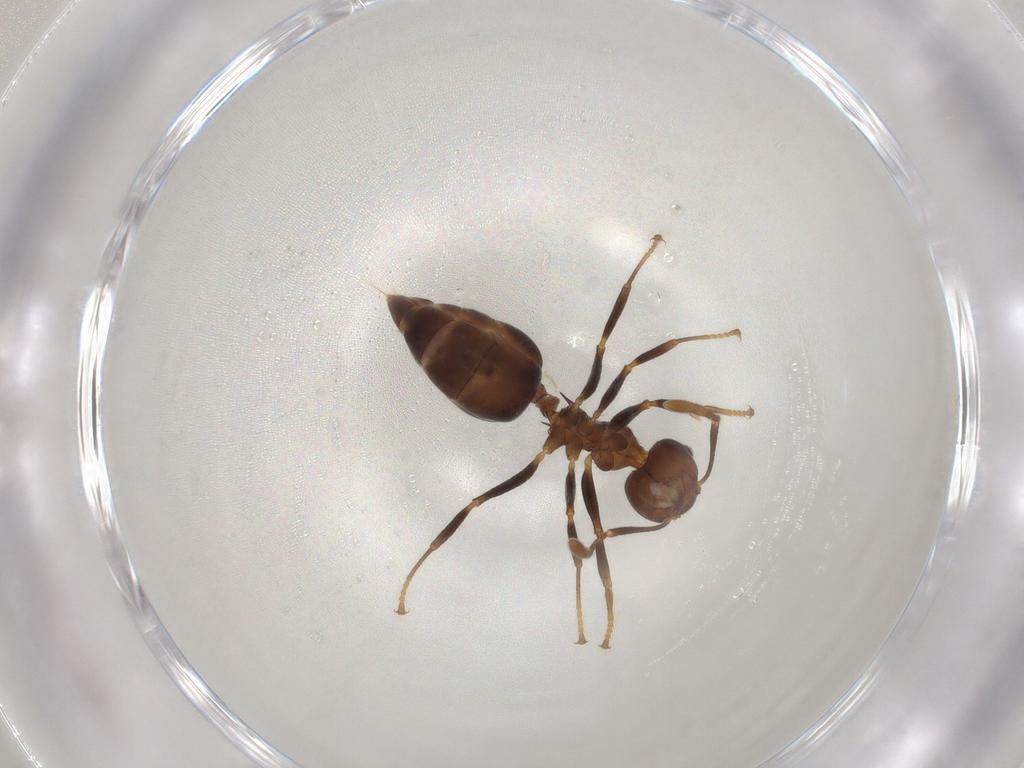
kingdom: Animalia
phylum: Arthropoda
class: Insecta
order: Hymenoptera
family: Formicidae
